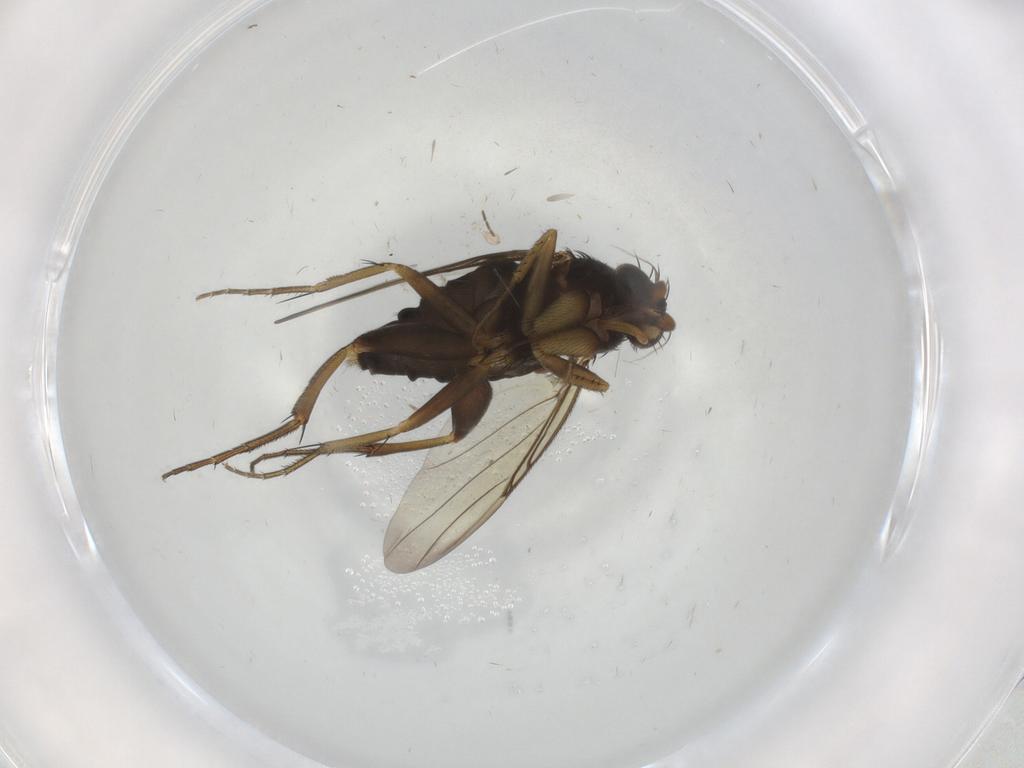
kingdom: Animalia
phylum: Arthropoda
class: Insecta
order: Diptera
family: Phoridae
